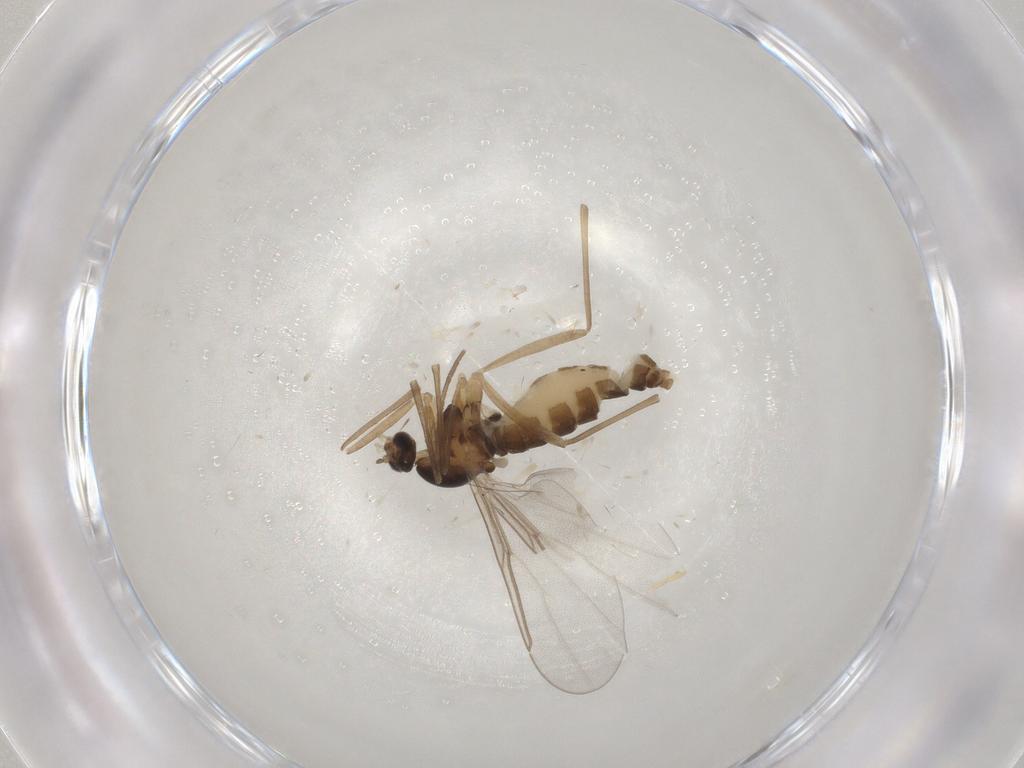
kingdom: Animalia
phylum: Arthropoda
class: Insecta
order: Diptera
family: Cecidomyiidae
